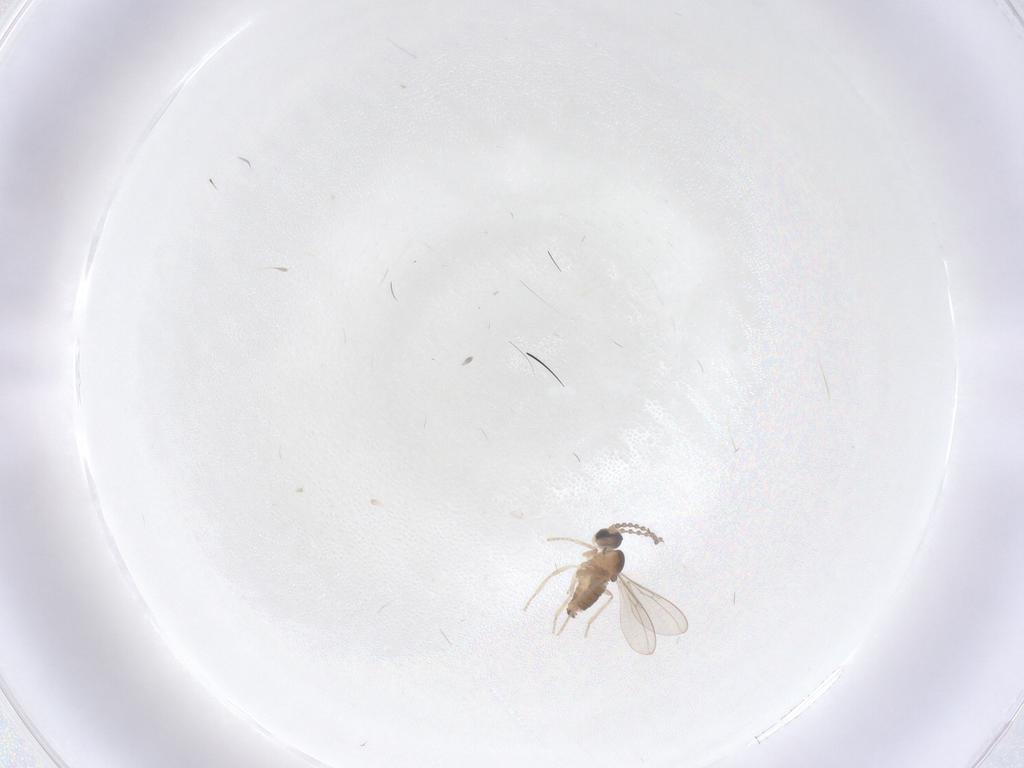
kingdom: Animalia
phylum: Arthropoda
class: Insecta
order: Diptera
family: Cecidomyiidae
